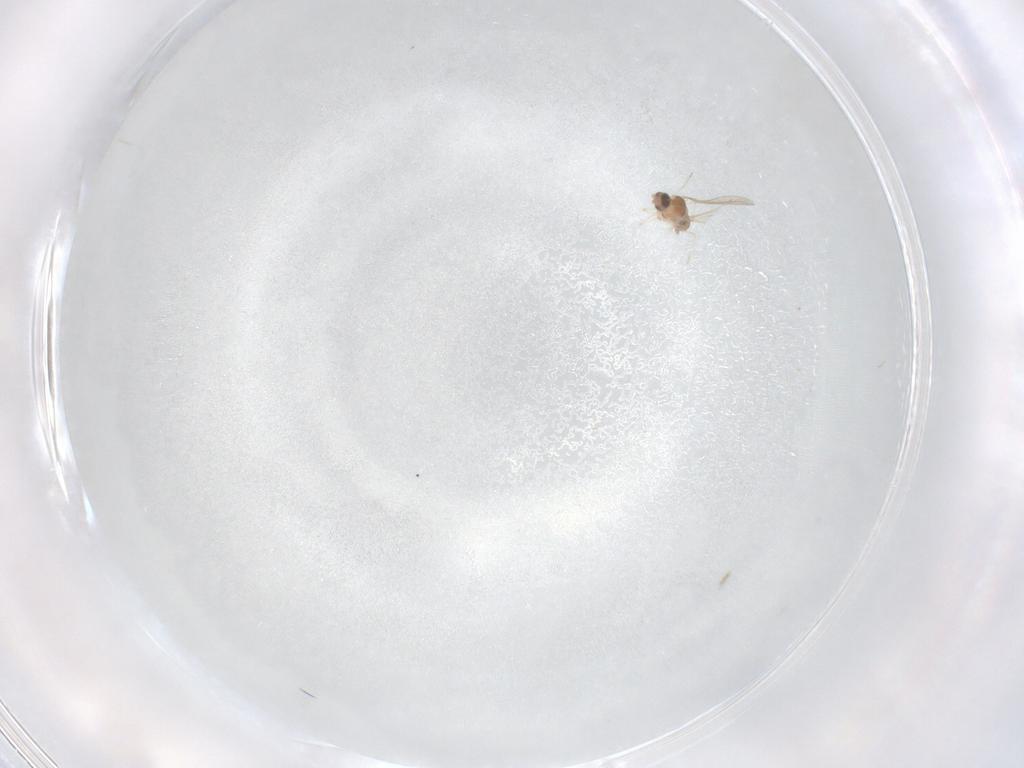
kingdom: Animalia
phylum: Arthropoda
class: Insecta
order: Diptera
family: Cecidomyiidae
